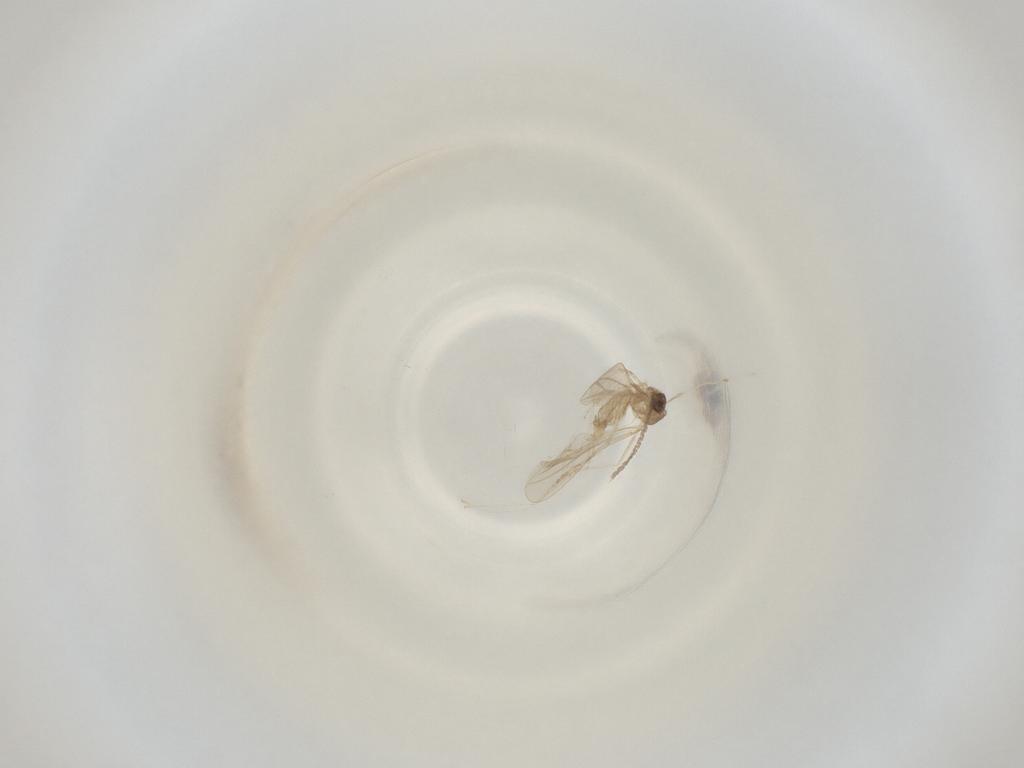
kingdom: Animalia
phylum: Arthropoda
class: Insecta
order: Diptera
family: Cecidomyiidae
